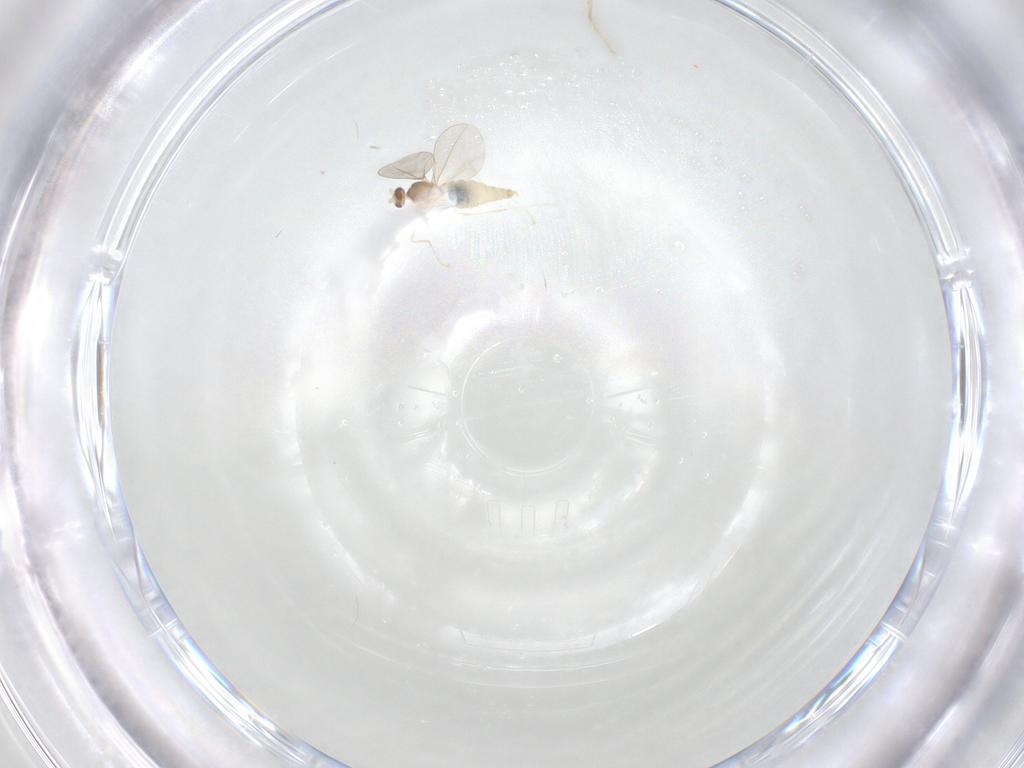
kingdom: Animalia
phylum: Arthropoda
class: Insecta
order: Diptera
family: Cecidomyiidae
